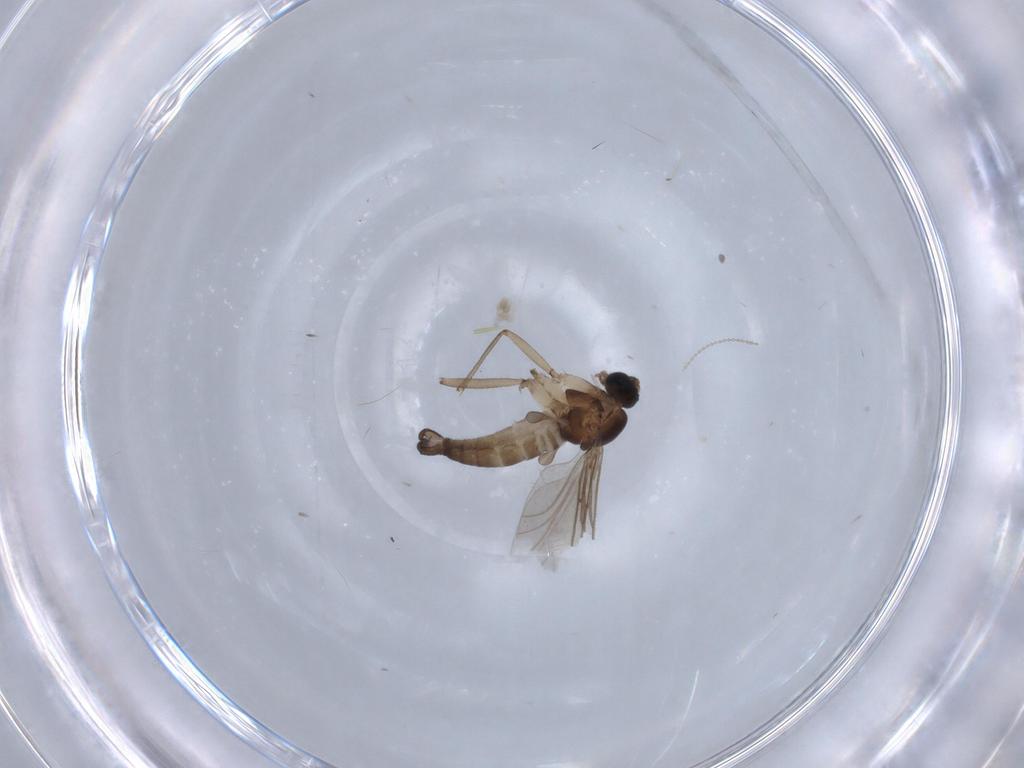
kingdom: Animalia
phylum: Arthropoda
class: Insecta
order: Diptera
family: Sciaridae
